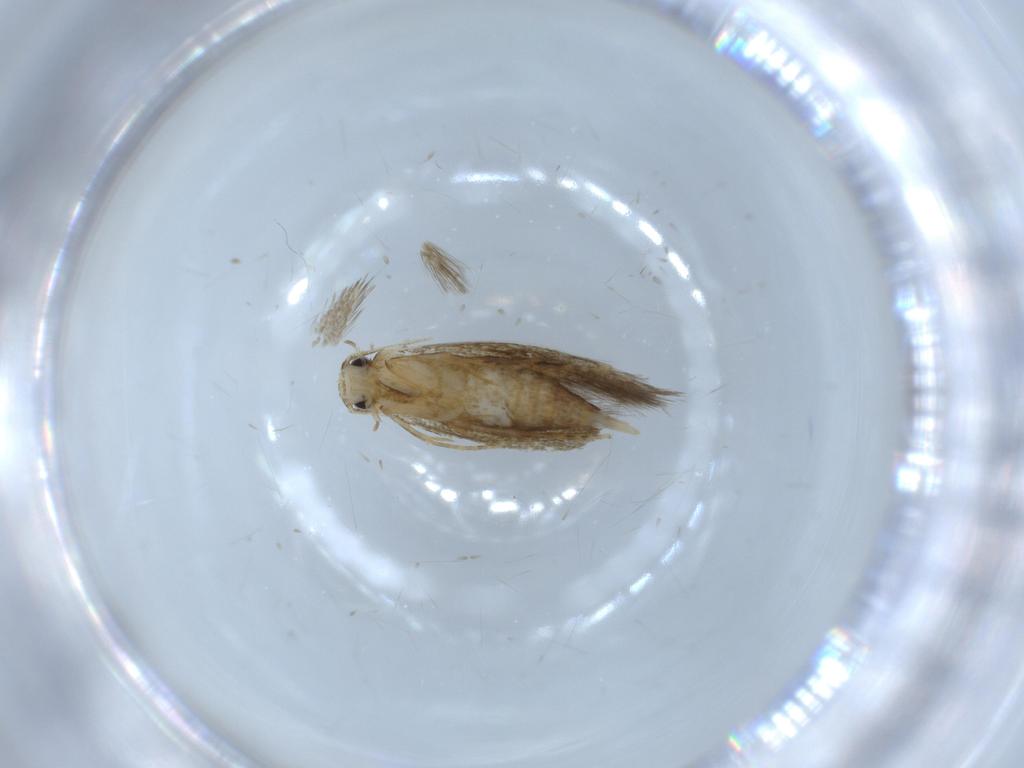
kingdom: Animalia
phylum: Arthropoda
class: Insecta
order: Lepidoptera
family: Tineidae
